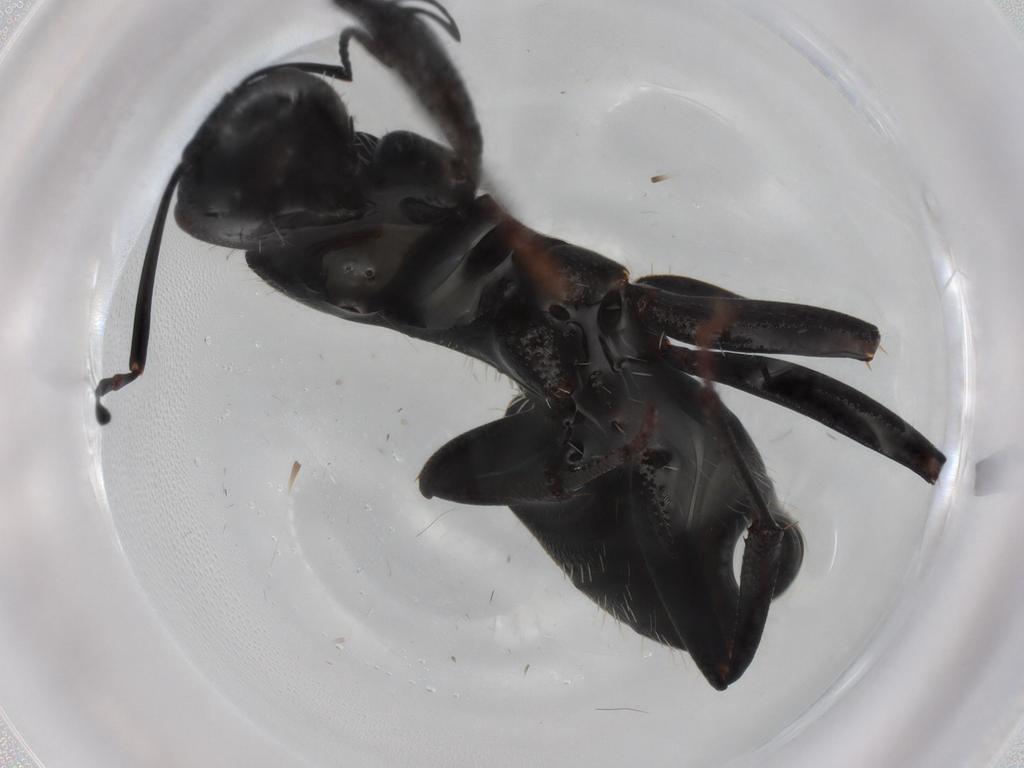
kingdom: Animalia
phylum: Arthropoda
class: Insecta
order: Hymenoptera
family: Formicidae
